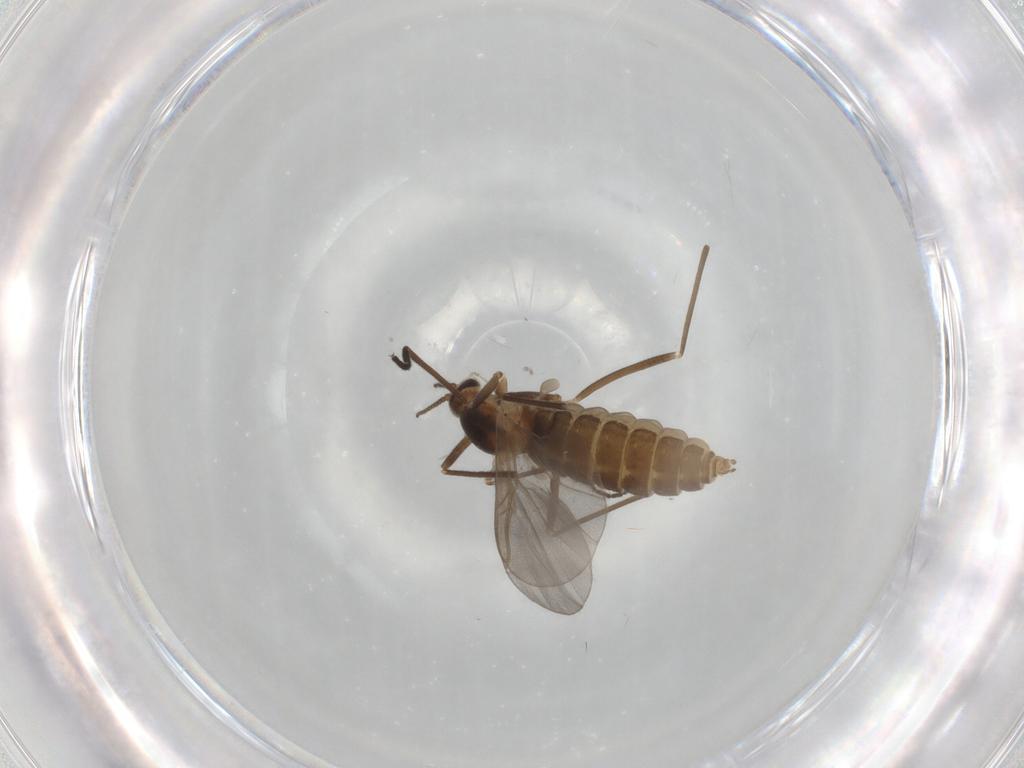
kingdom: Animalia
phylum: Arthropoda
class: Insecta
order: Diptera
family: Cecidomyiidae
